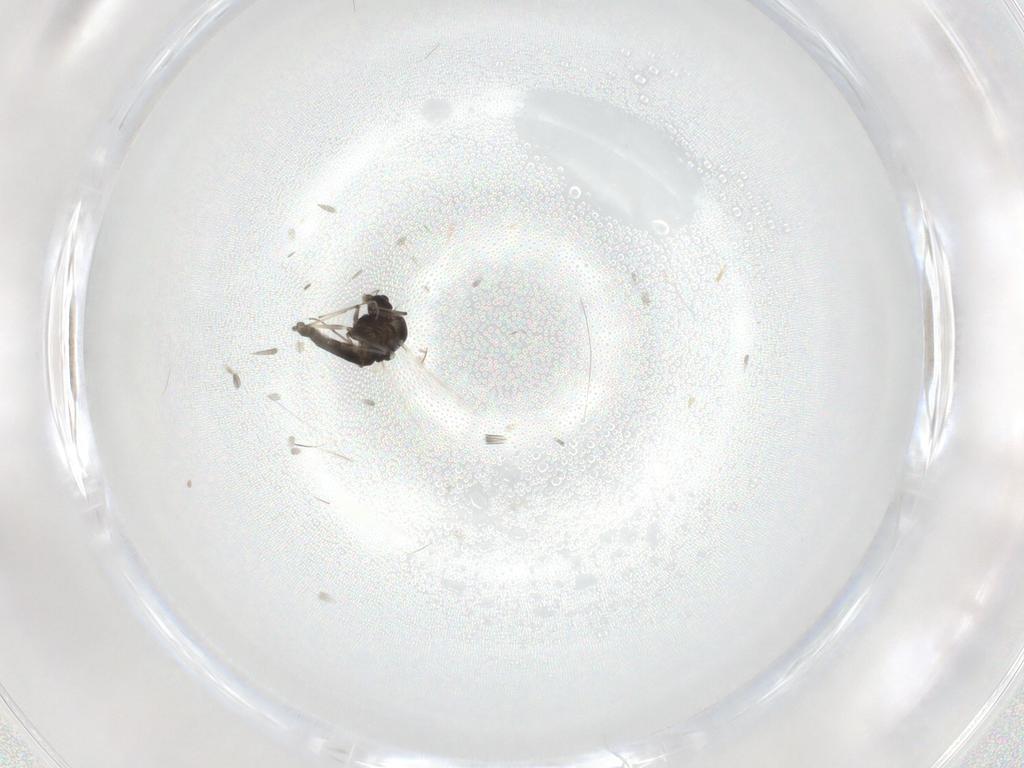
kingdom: Animalia
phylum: Arthropoda
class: Insecta
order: Diptera
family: Chironomidae
